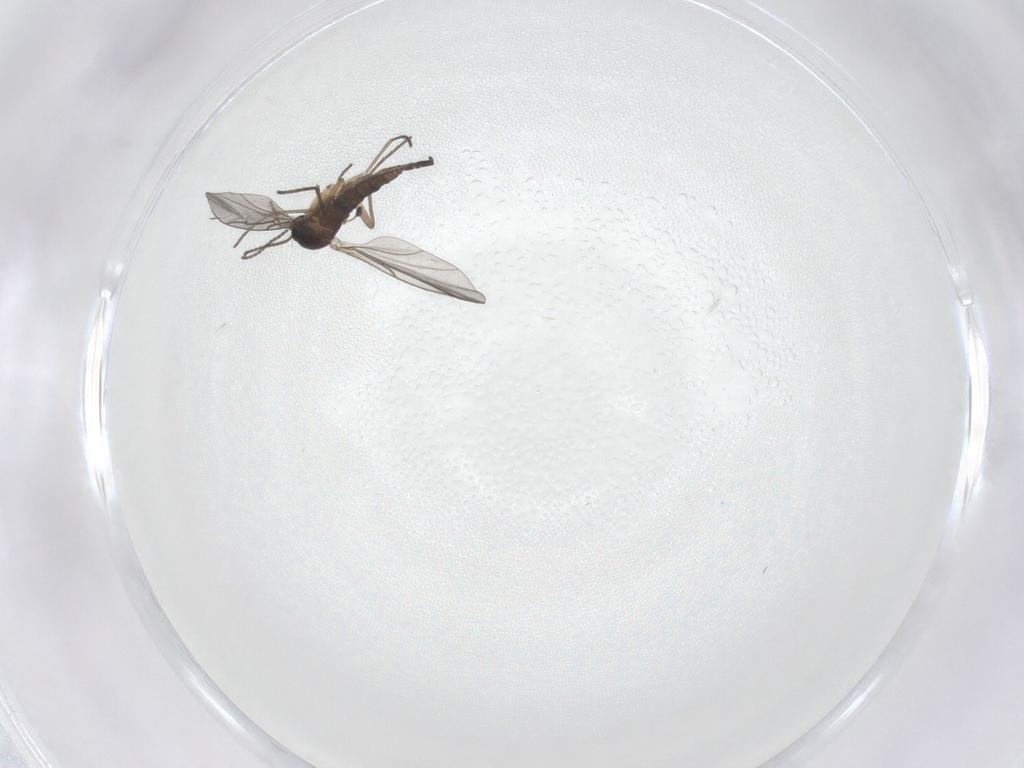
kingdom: Animalia
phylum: Arthropoda
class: Insecta
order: Diptera
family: Sciaridae
